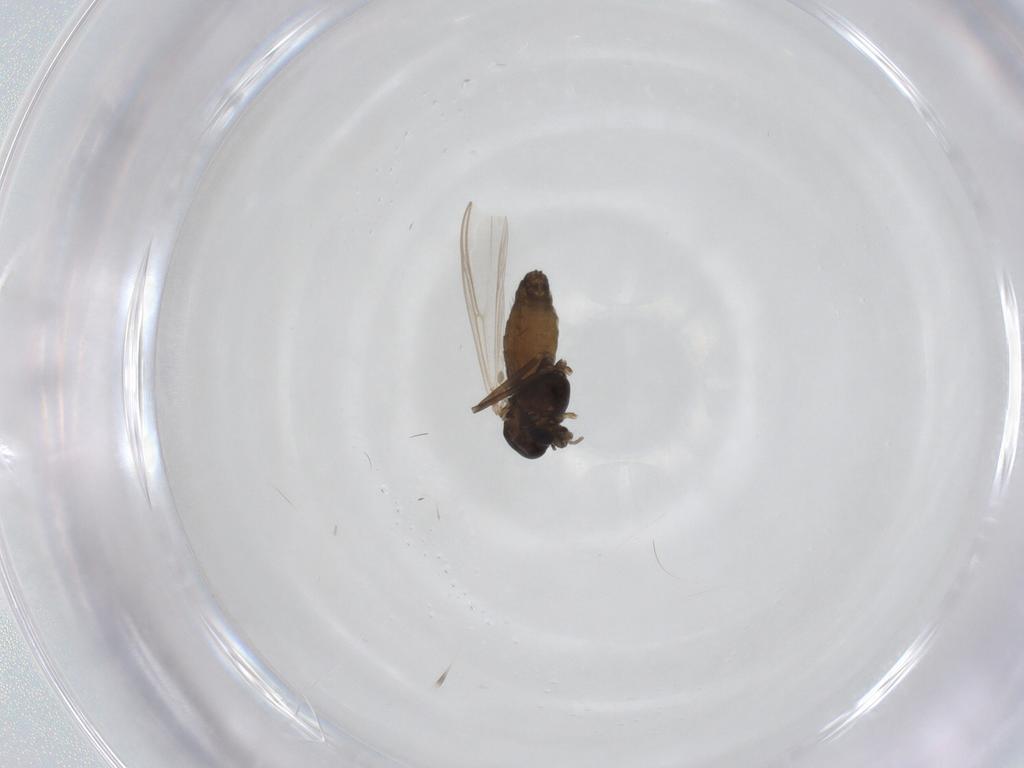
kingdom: Animalia
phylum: Arthropoda
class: Insecta
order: Diptera
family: Chironomidae
